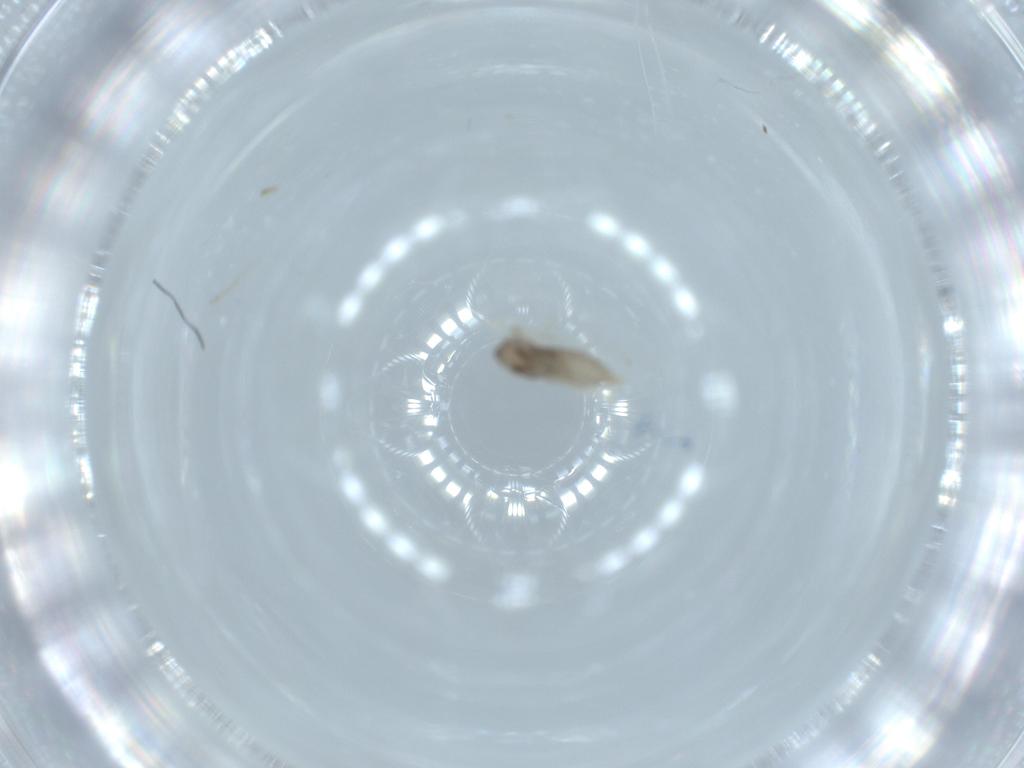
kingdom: Animalia
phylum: Arthropoda
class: Insecta
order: Diptera
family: Cecidomyiidae
